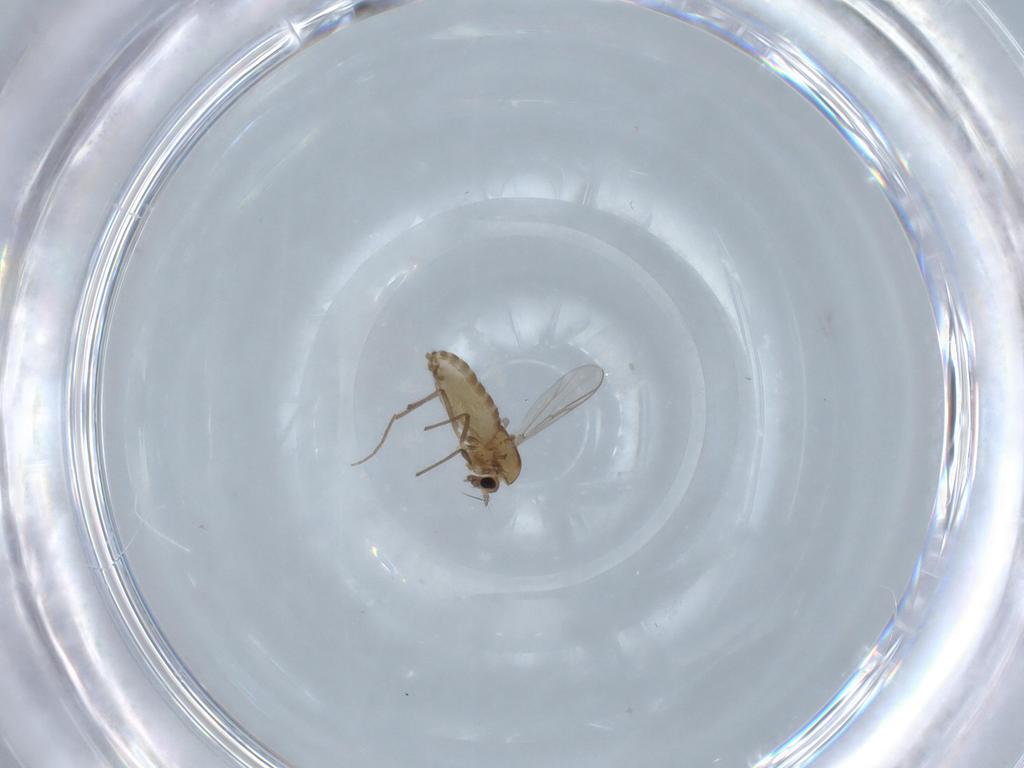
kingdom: Animalia
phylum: Arthropoda
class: Insecta
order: Diptera
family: Chironomidae
